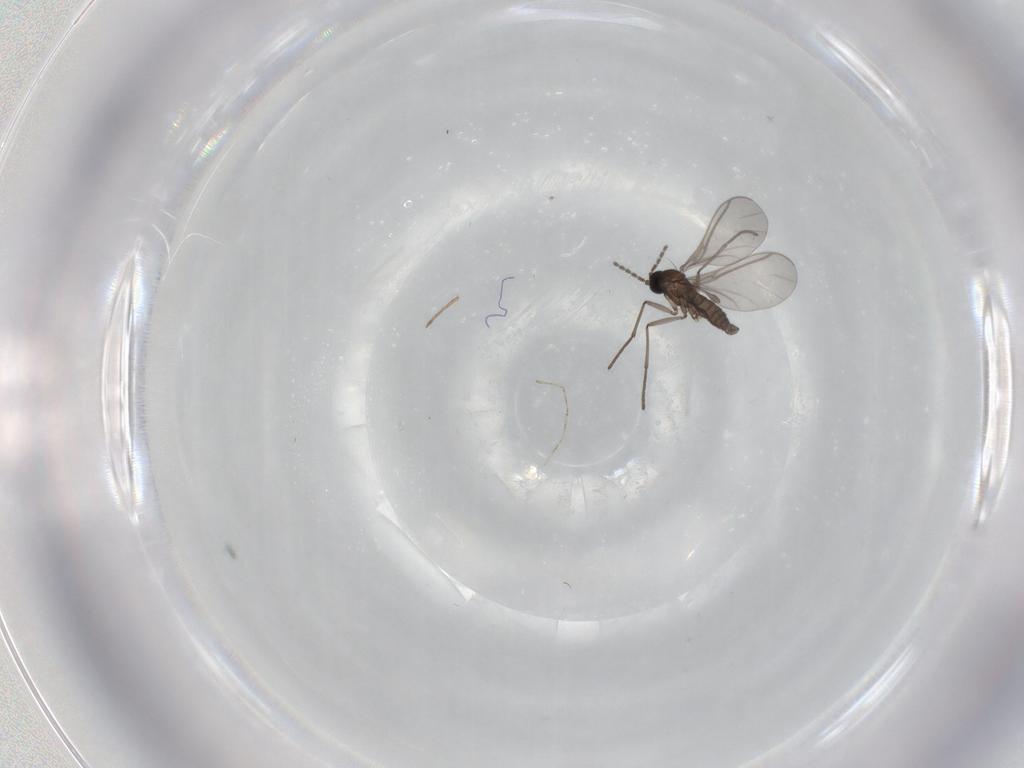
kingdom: Animalia
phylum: Arthropoda
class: Insecta
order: Diptera
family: Sciaridae
